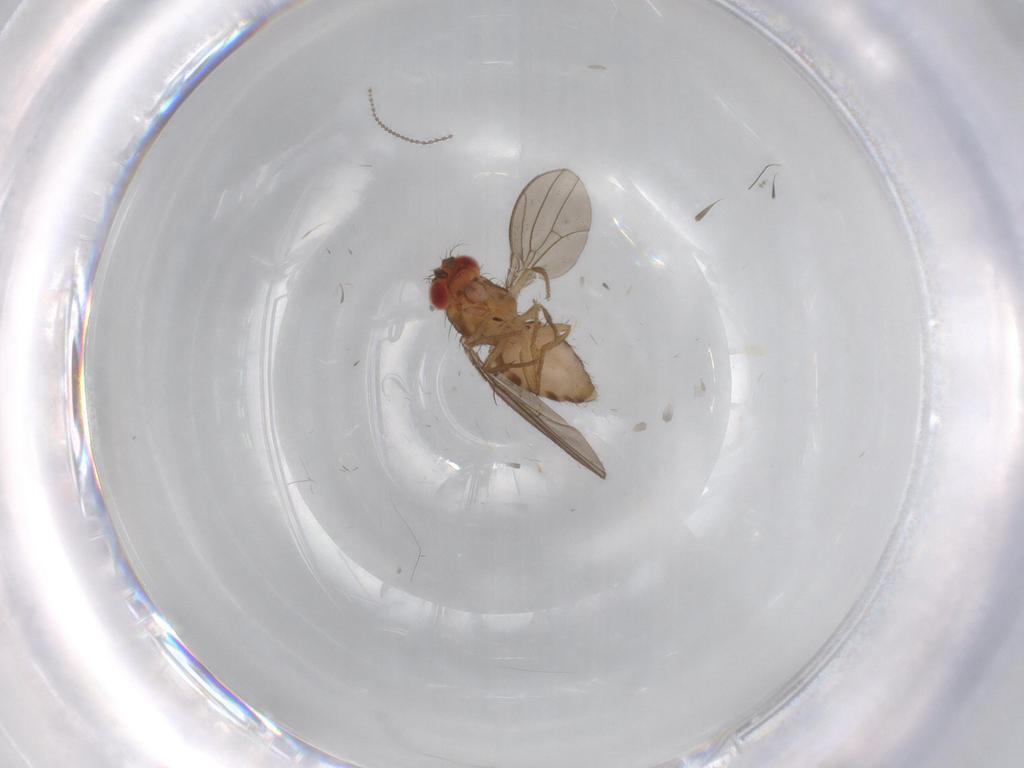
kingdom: Animalia
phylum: Arthropoda
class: Insecta
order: Diptera
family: Drosophilidae
